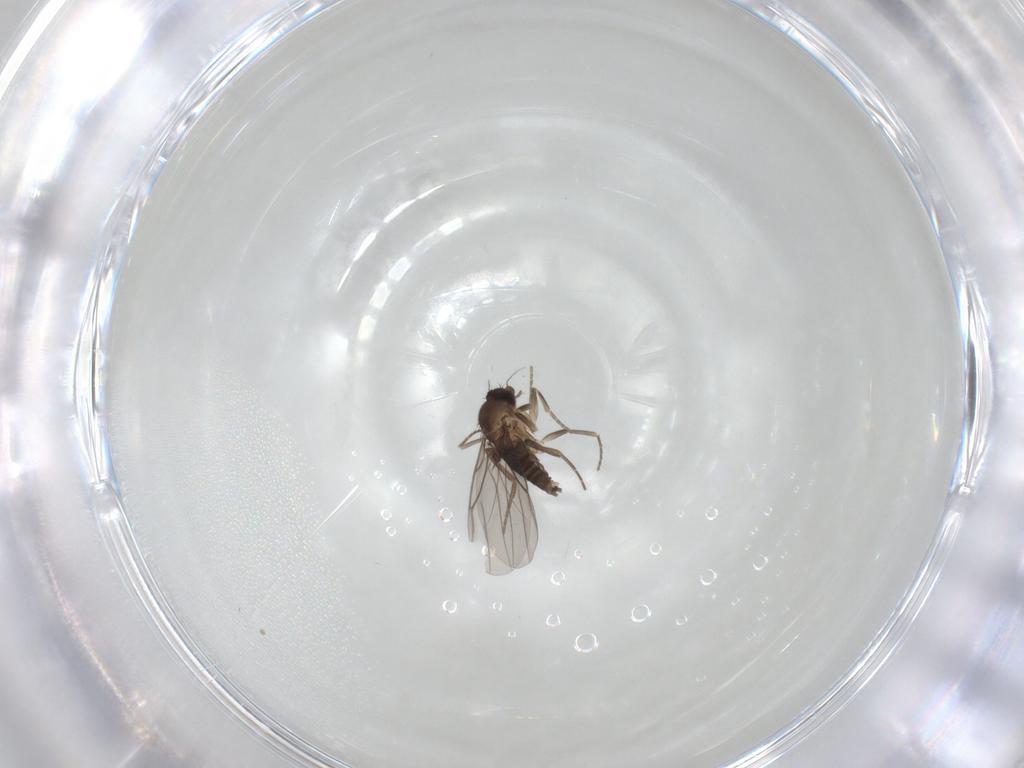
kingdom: Animalia
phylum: Arthropoda
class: Insecta
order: Diptera
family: Phoridae
